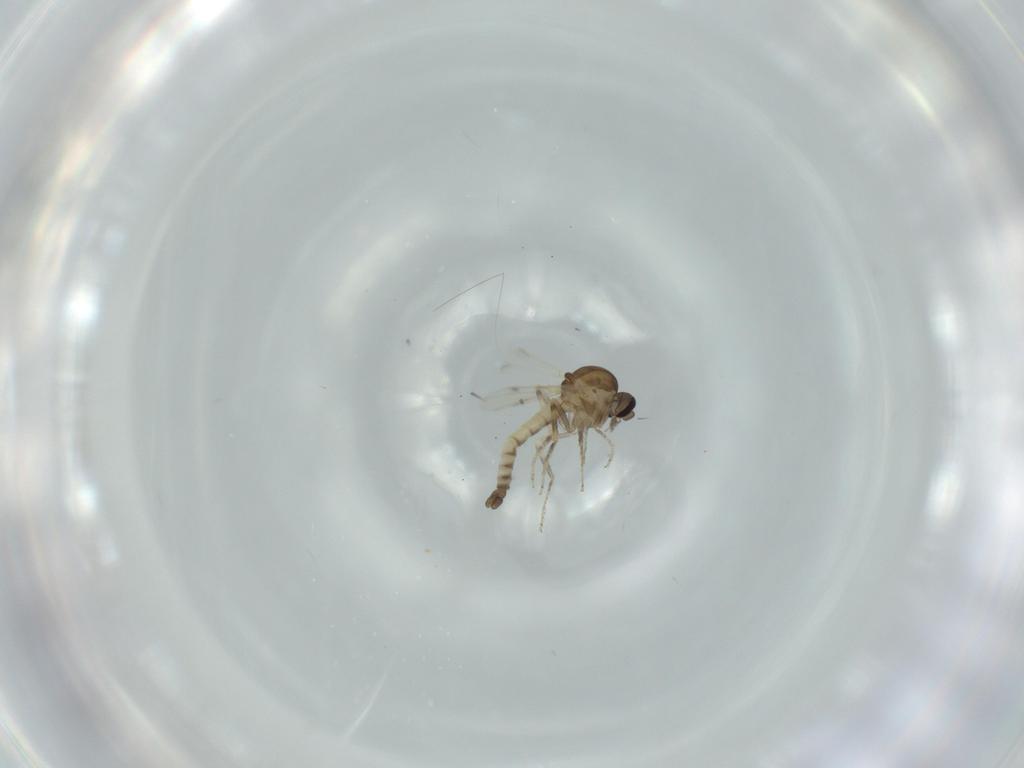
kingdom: Animalia
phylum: Arthropoda
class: Insecta
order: Diptera
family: Ceratopogonidae
